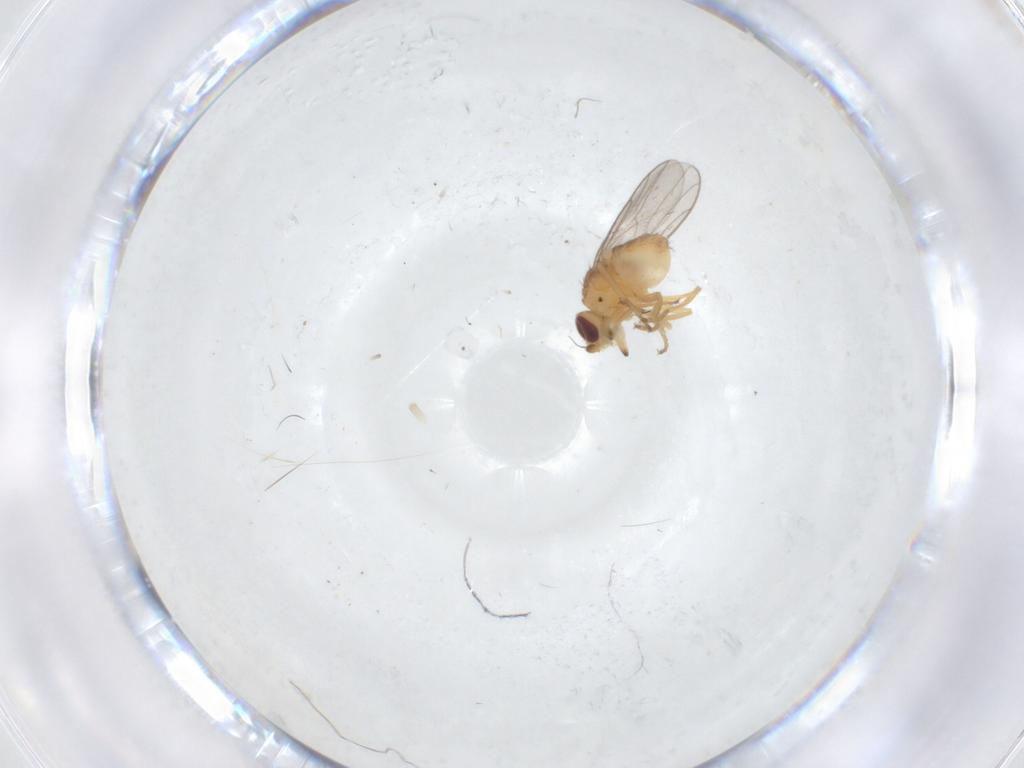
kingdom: Animalia
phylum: Arthropoda
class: Insecta
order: Diptera
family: Chloropidae
